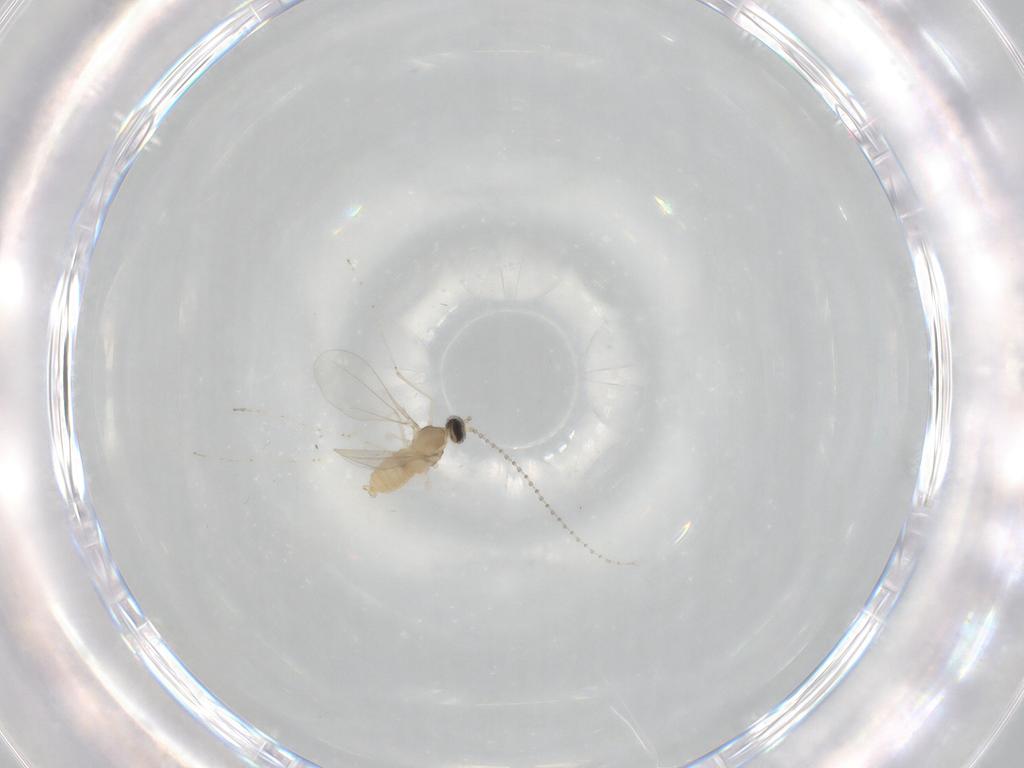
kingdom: Animalia
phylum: Arthropoda
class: Insecta
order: Diptera
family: Cecidomyiidae
